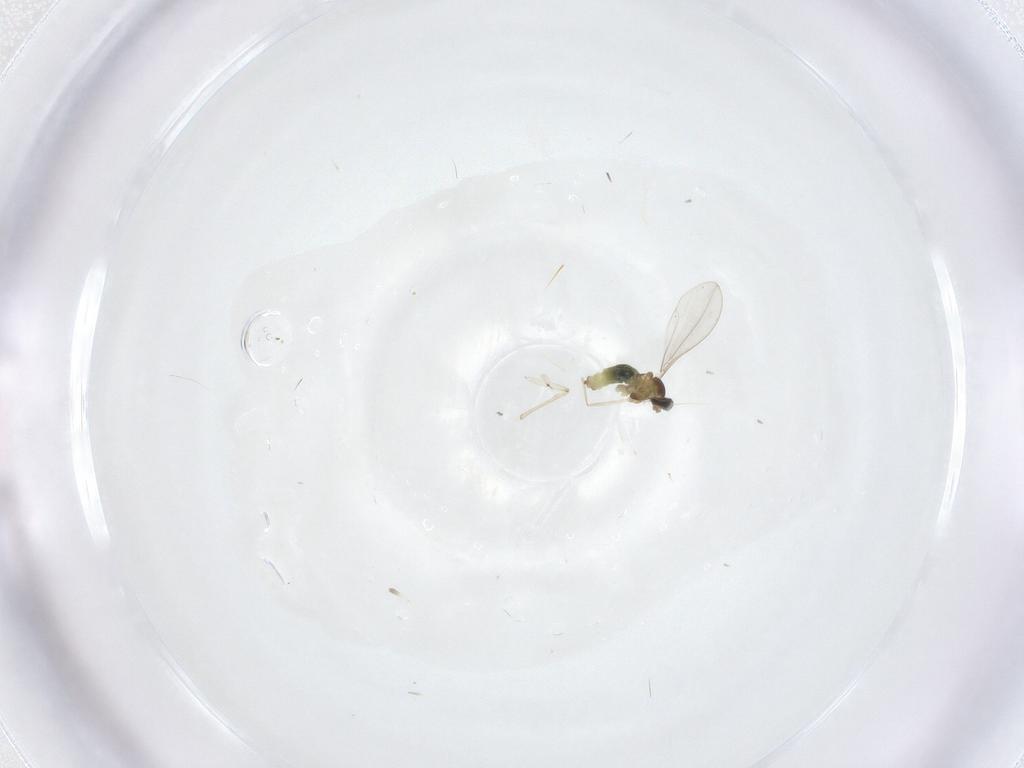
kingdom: Animalia
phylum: Arthropoda
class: Insecta
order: Diptera
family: Cecidomyiidae
